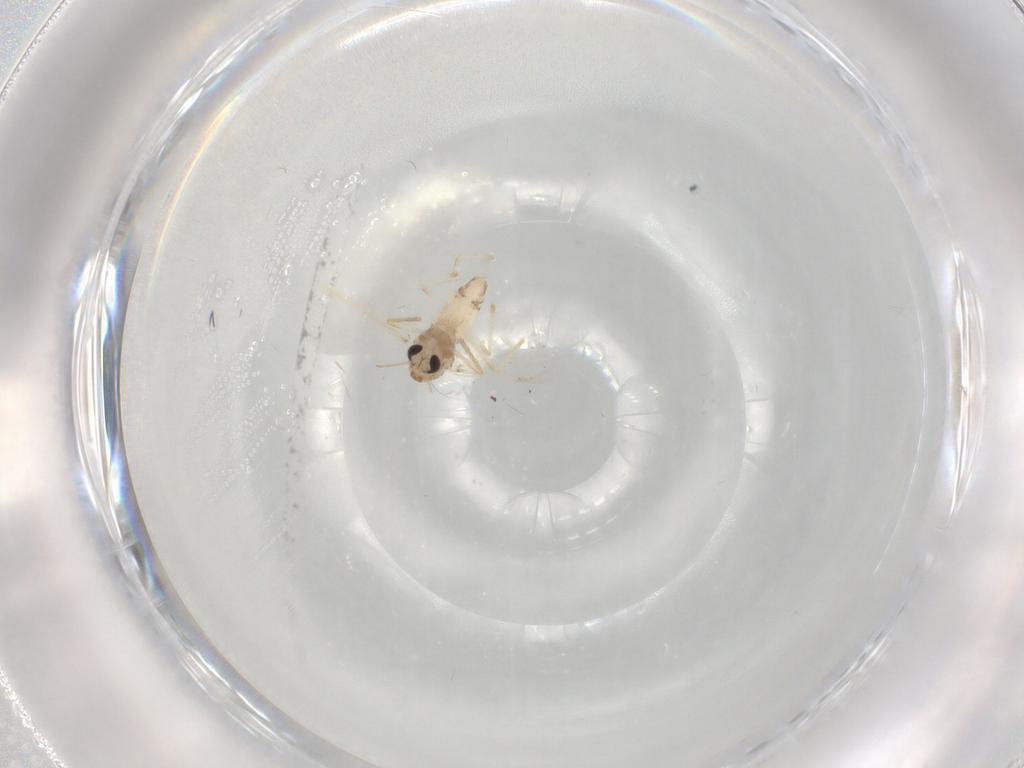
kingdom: Animalia
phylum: Arthropoda
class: Insecta
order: Diptera
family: Chironomidae
